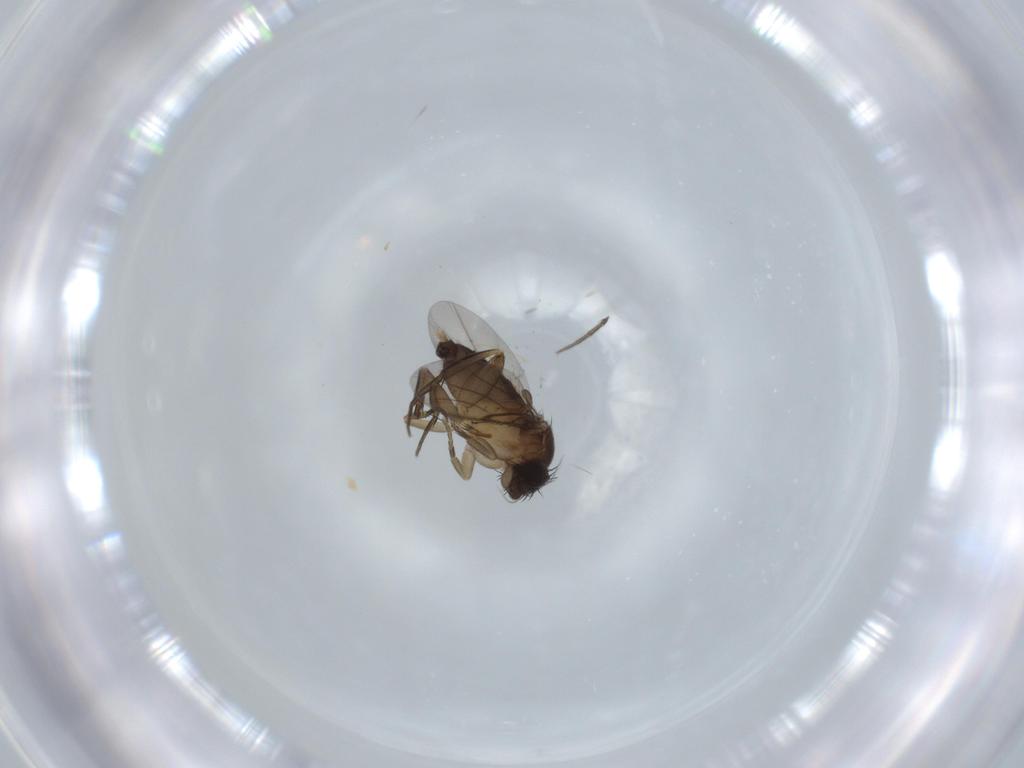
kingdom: Animalia
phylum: Arthropoda
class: Insecta
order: Diptera
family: Phoridae
